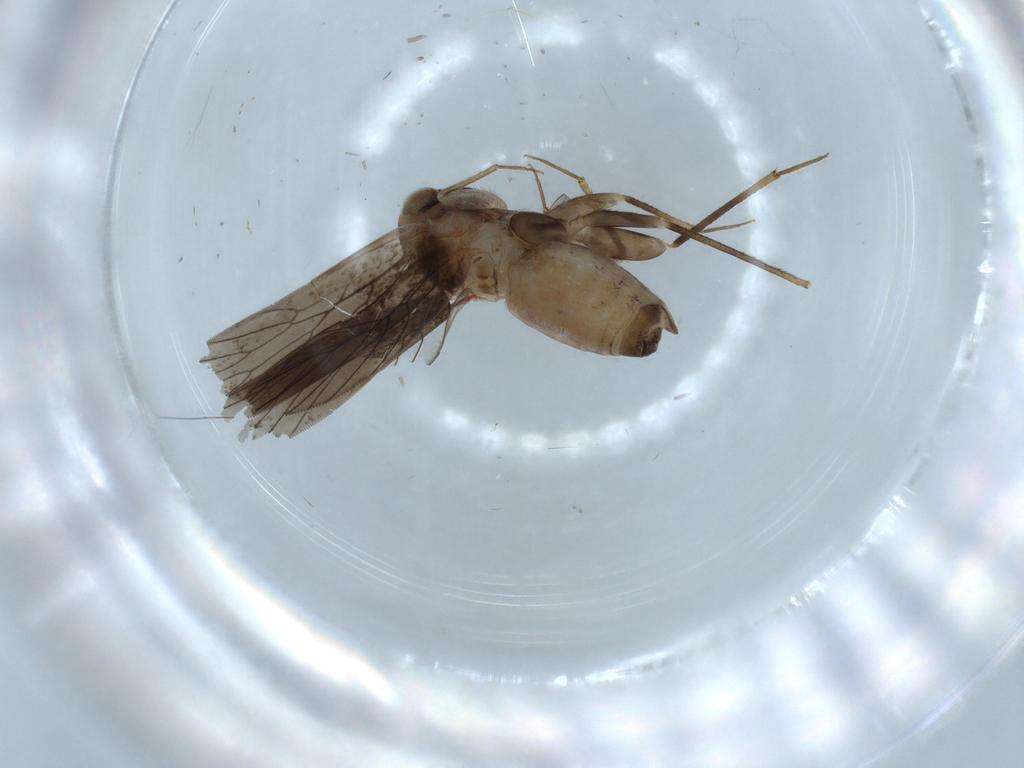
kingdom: Animalia
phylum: Arthropoda
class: Insecta
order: Psocodea
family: Lepidopsocidae
